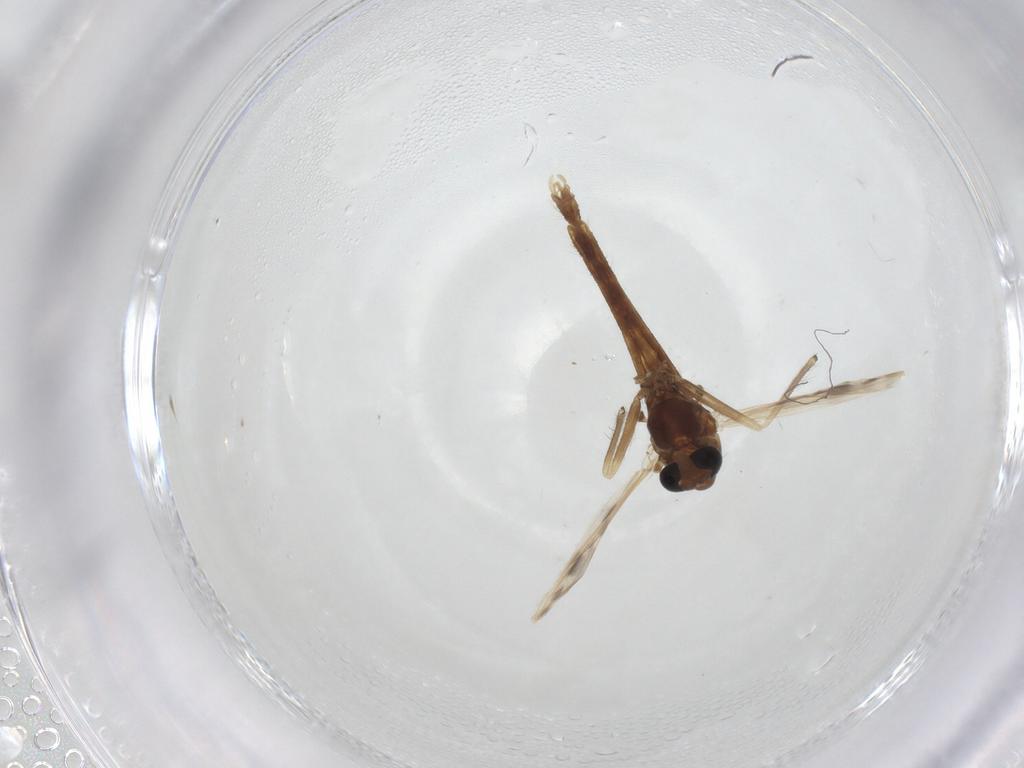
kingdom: Animalia
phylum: Arthropoda
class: Insecta
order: Diptera
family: Chironomidae
